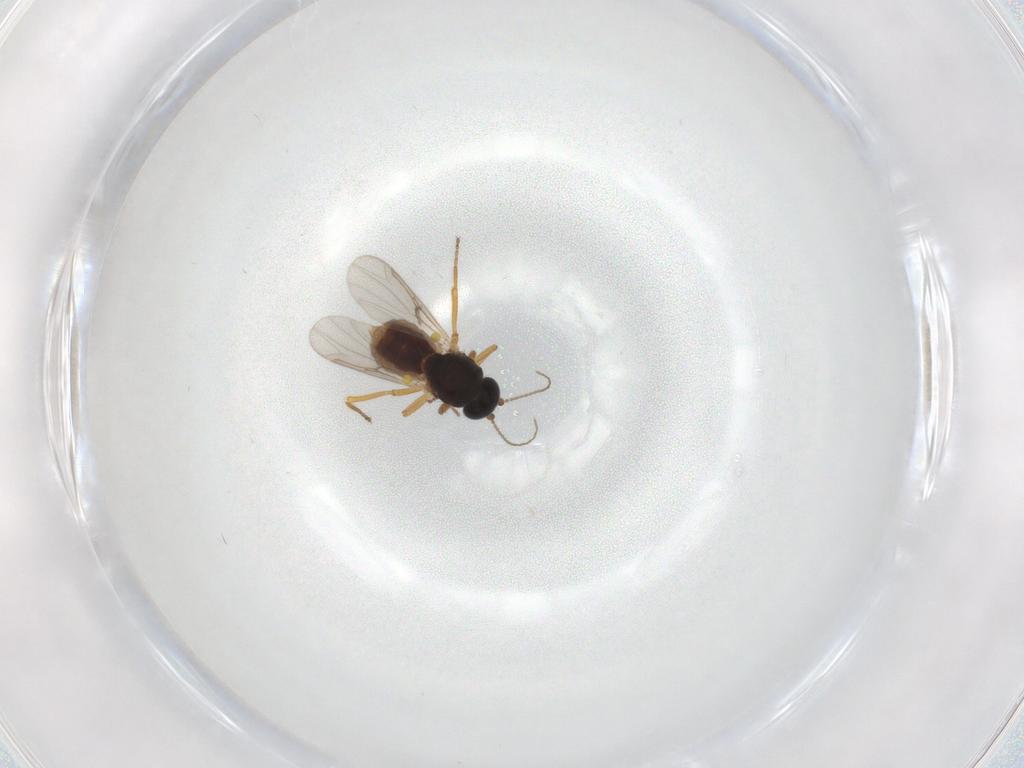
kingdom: Animalia
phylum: Arthropoda
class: Insecta
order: Diptera
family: Ceratopogonidae
